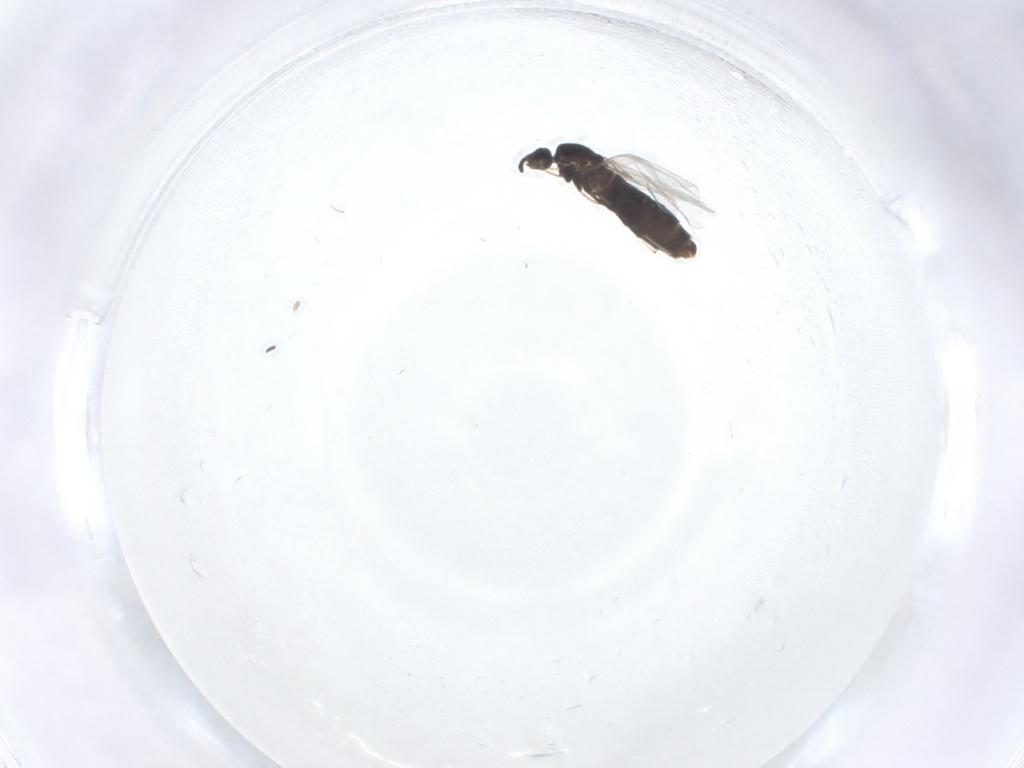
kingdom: Animalia
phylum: Arthropoda
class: Insecta
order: Diptera
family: Scatopsidae
